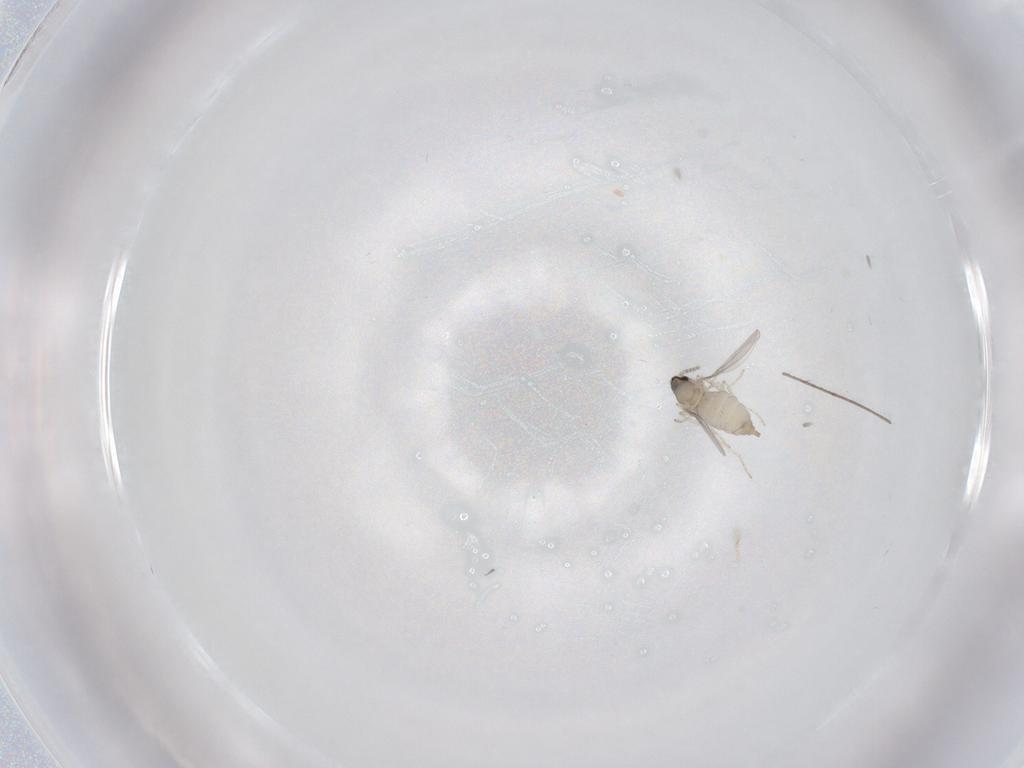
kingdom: Animalia
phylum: Arthropoda
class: Insecta
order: Diptera
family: Cecidomyiidae
